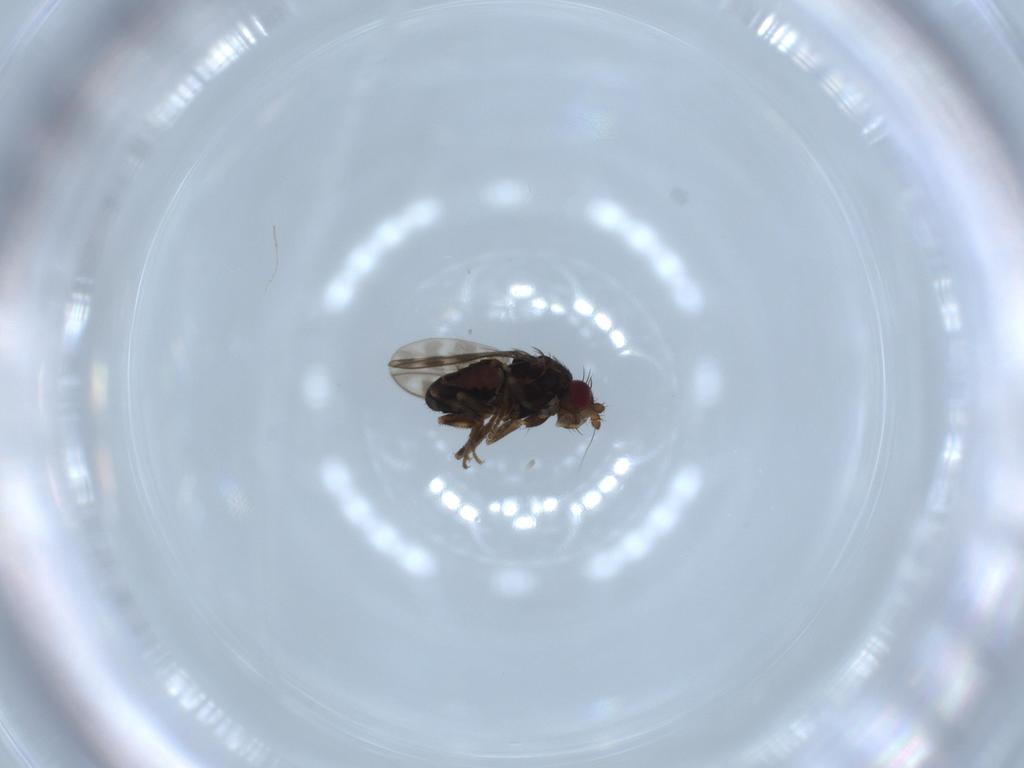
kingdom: Animalia
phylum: Arthropoda
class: Insecta
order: Diptera
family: Sphaeroceridae
